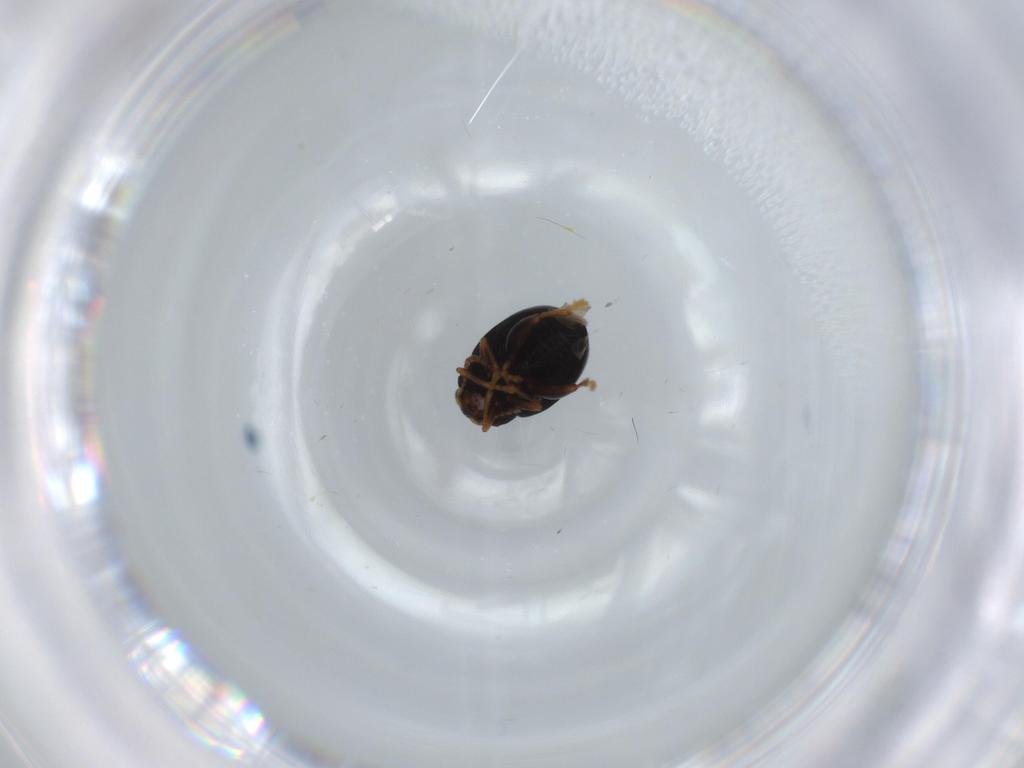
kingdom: Animalia
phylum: Arthropoda
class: Insecta
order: Coleoptera
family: Chrysomelidae
